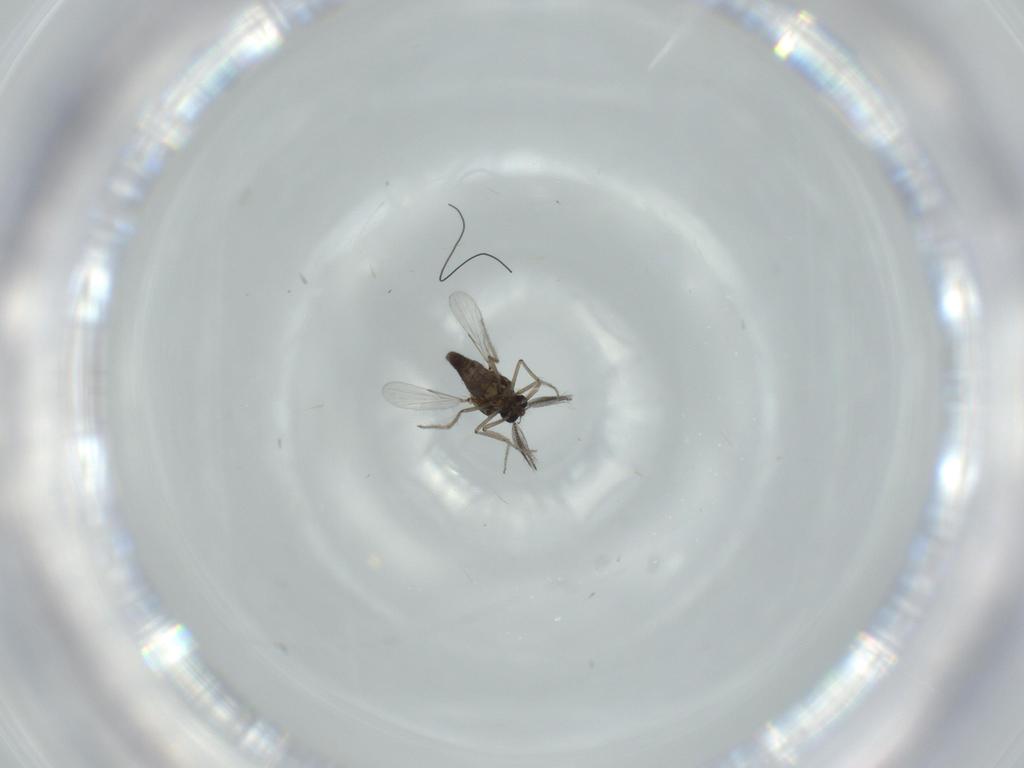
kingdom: Animalia
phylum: Arthropoda
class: Insecta
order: Diptera
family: Ceratopogonidae
